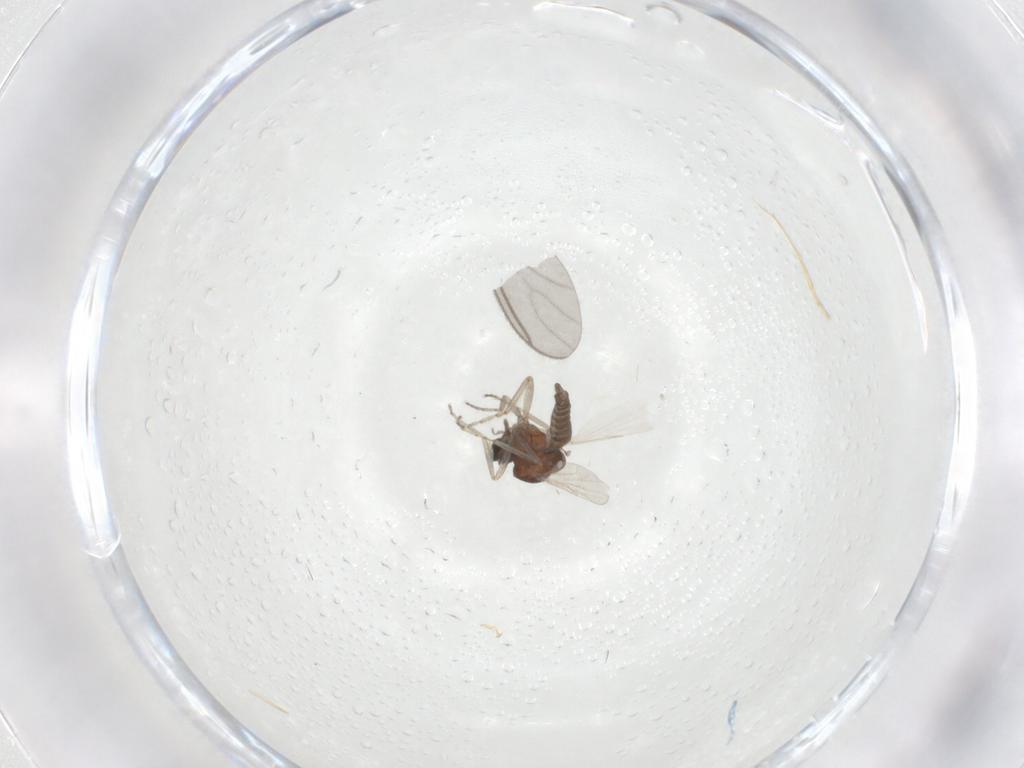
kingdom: Animalia
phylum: Arthropoda
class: Insecta
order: Diptera
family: Ceratopogonidae
